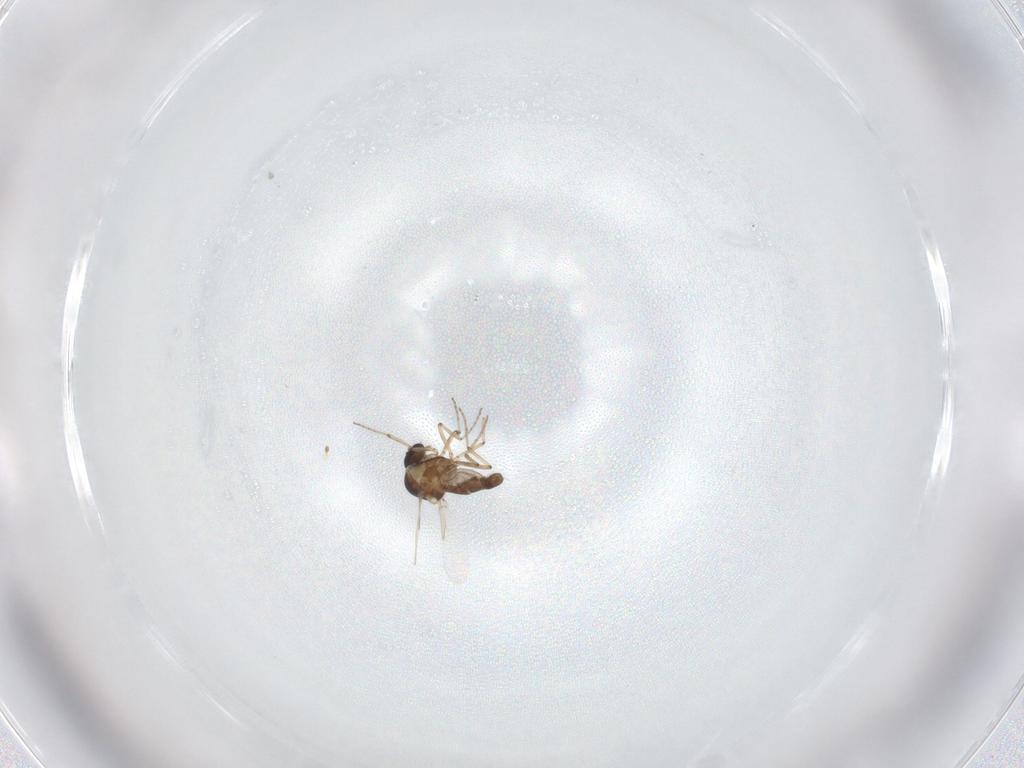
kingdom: Animalia
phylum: Arthropoda
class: Insecta
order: Diptera
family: Ceratopogonidae
